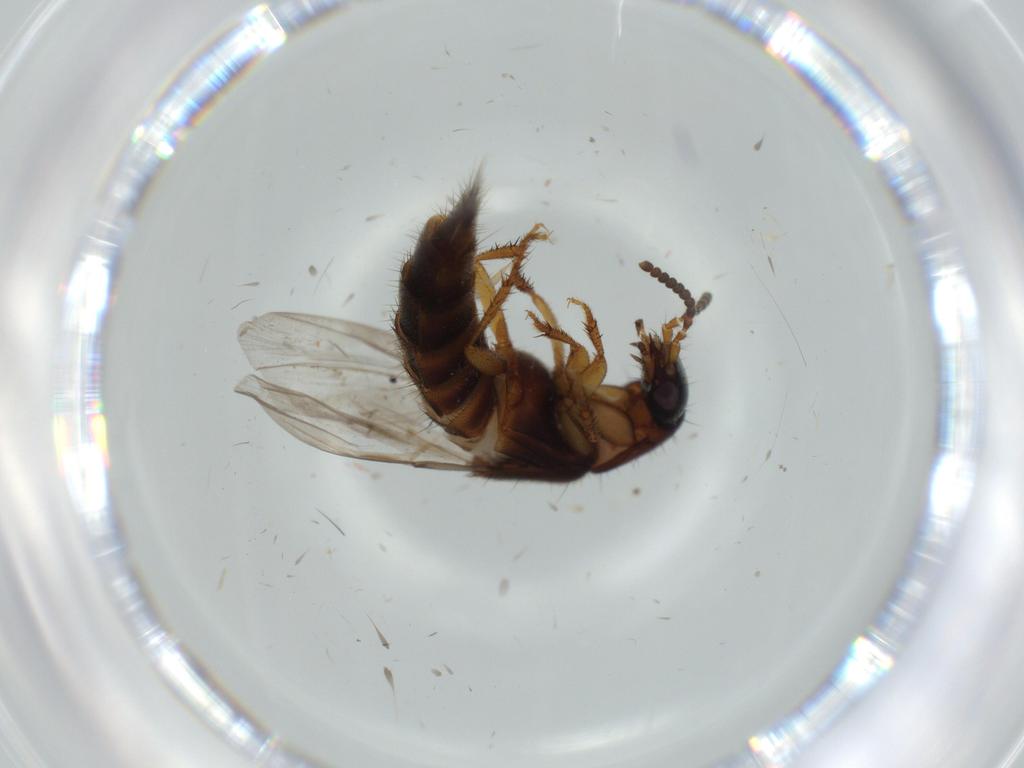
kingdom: Animalia
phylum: Arthropoda
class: Insecta
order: Coleoptera
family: Staphylinidae
